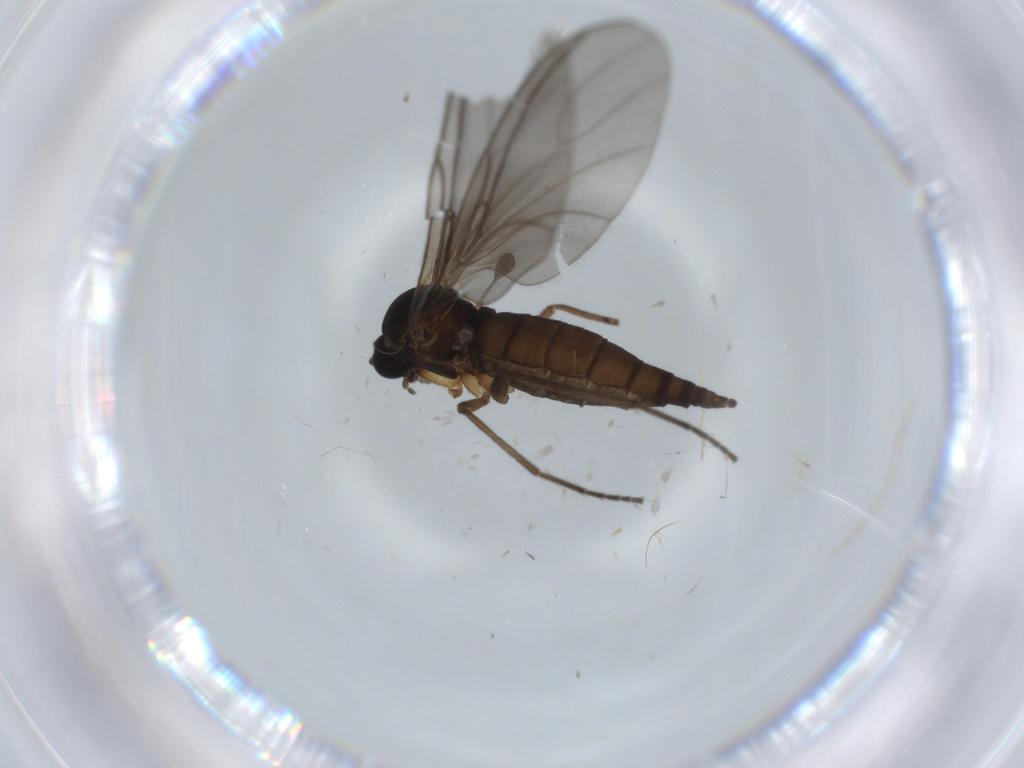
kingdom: Animalia
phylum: Arthropoda
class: Insecta
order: Diptera
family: Sciaridae
